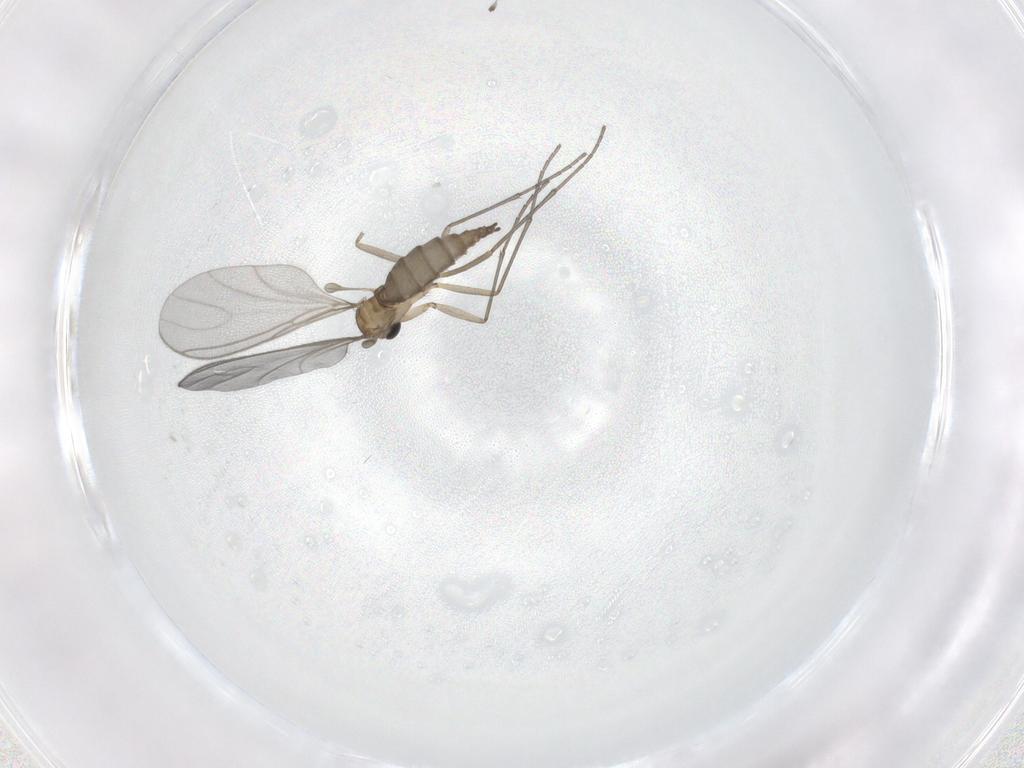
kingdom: Animalia
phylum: Arthropoda
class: Insecta
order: Diptera
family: Sciaridae
